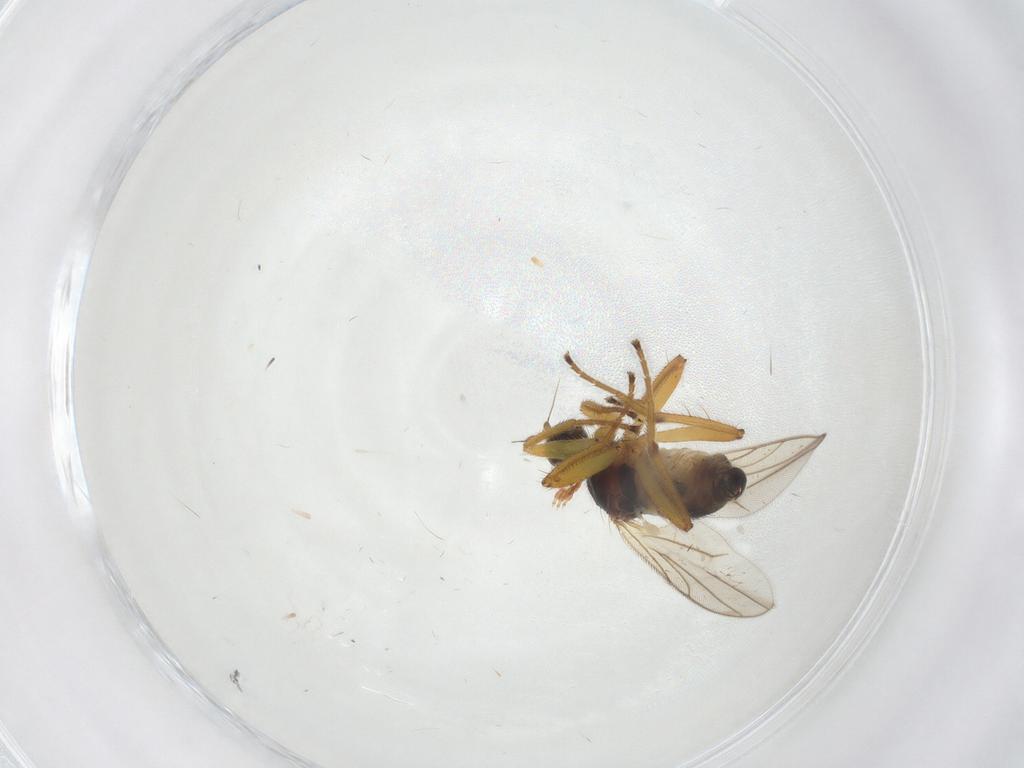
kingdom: Animalia
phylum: Arthropoda
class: Insecta
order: Diptera
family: Hybotidae
